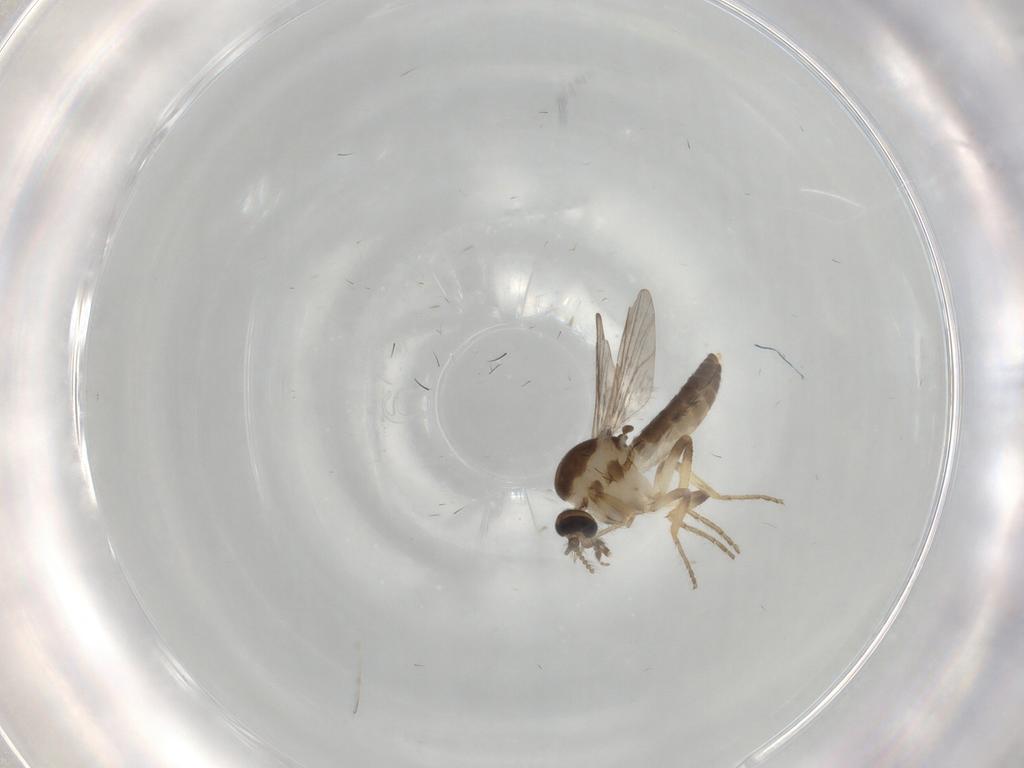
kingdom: Animalia
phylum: Arthropoda
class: Insecta
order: Diptera
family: Ceratopogonidae
